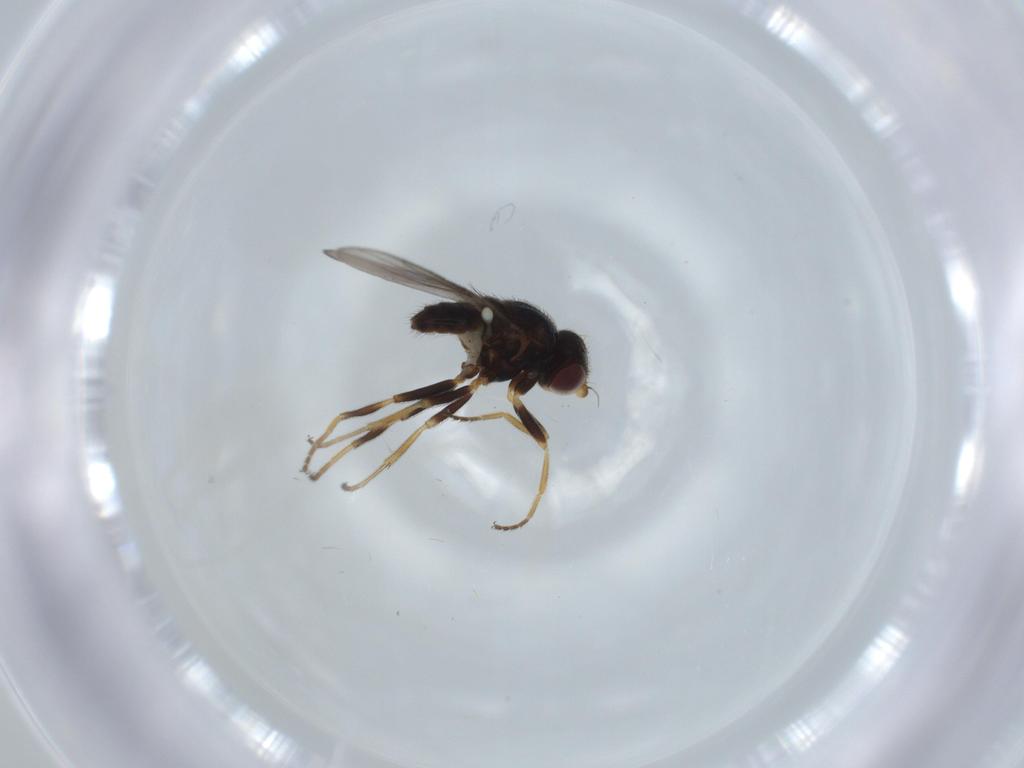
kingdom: Animalia
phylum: Arthropoda
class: Insecta
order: Diptera
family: Chloropidae
